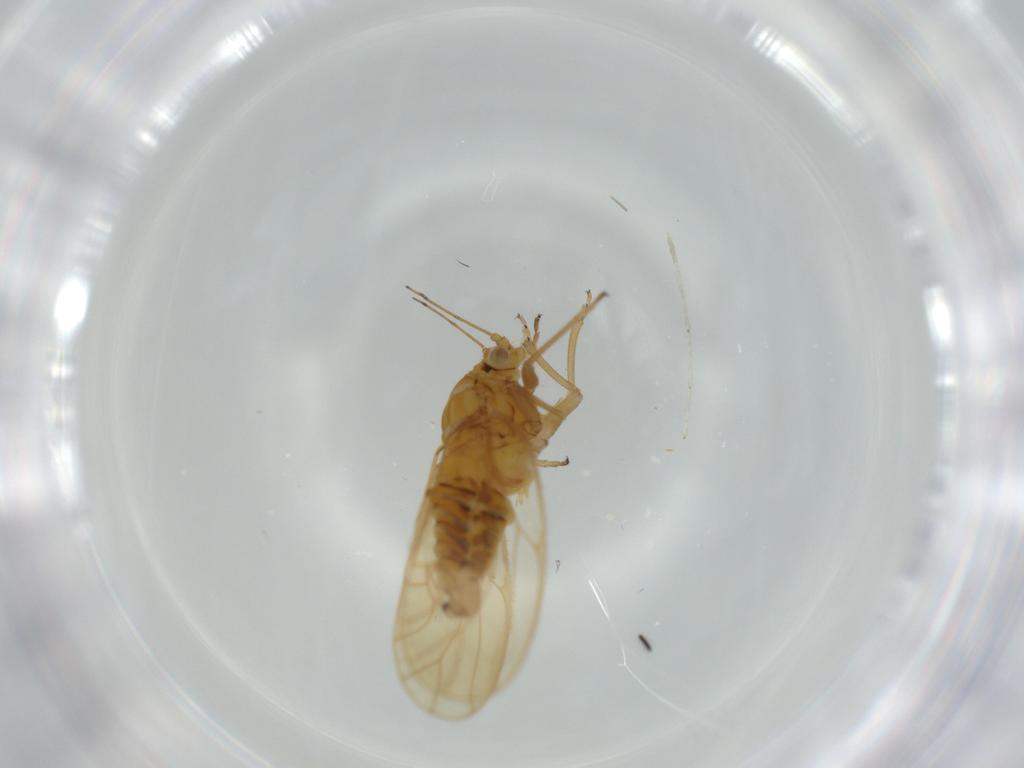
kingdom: Animalia
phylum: Arthropoda
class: Insecta
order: Hemiptera
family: Psyllidae
